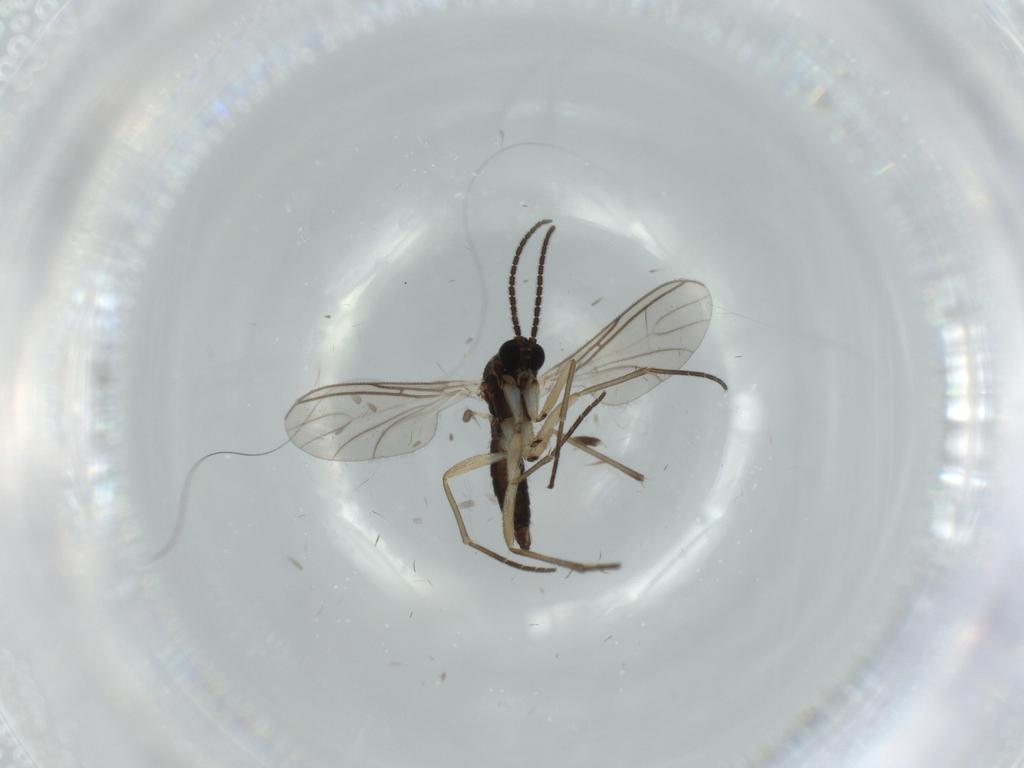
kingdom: Animalia
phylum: Arthropoda
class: Insecta
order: Diptera
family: Sciaridae
